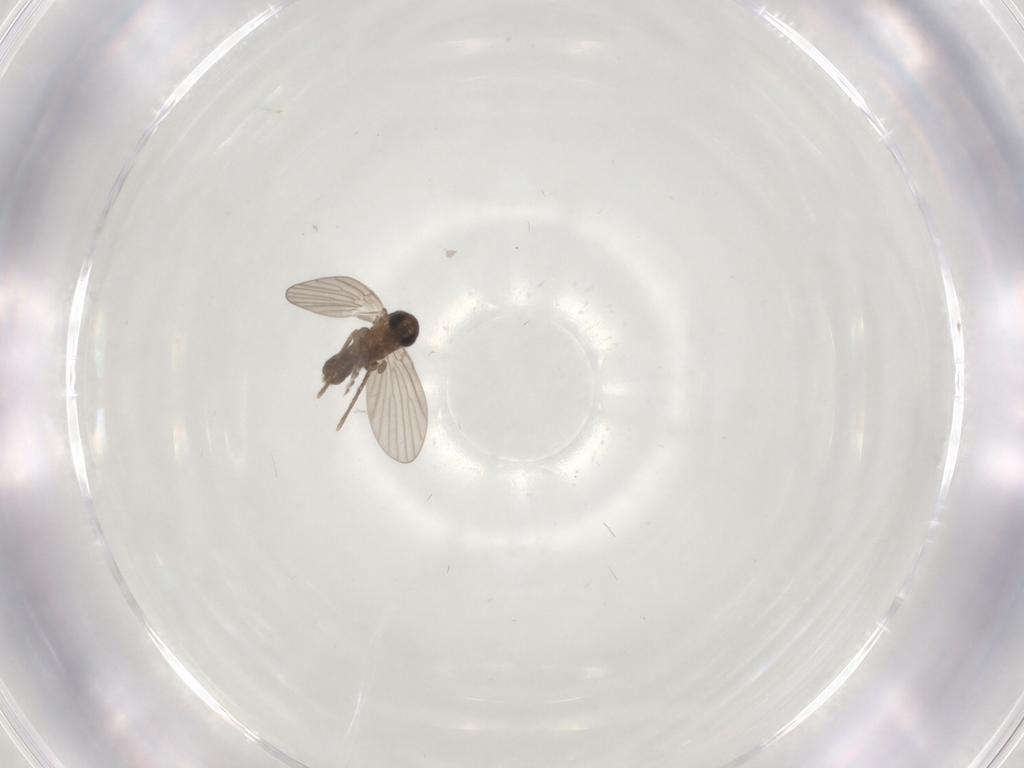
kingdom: Animalia
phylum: Arthropoda
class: Insecta
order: Diptera
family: Psychodidae
